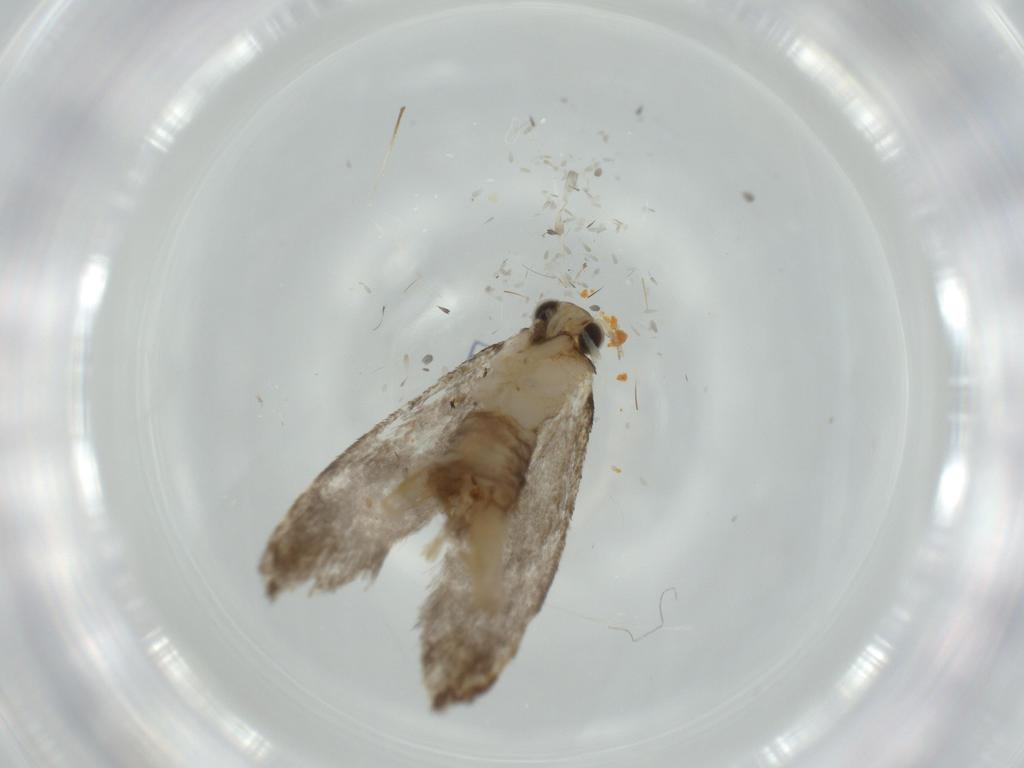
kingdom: Animalia
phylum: Arthropoda
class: Insecta
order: Lepidoptera
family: Tineidae
